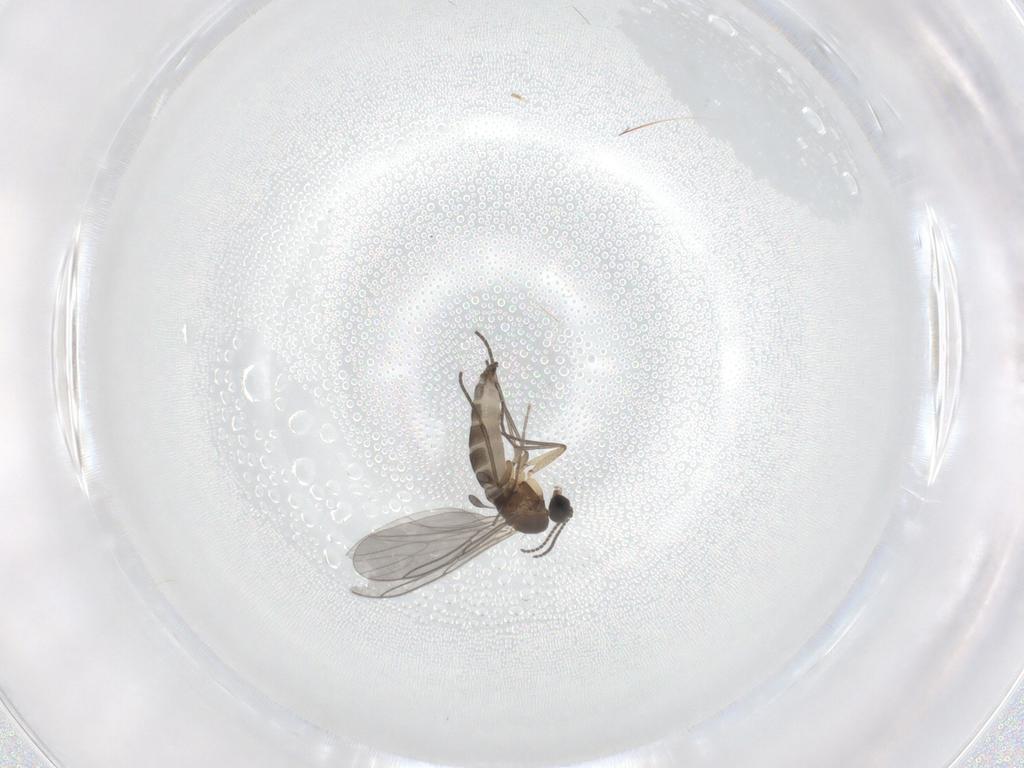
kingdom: Animalia
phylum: Arthropoda
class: Insecta
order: Diptera
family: Sciaridae
